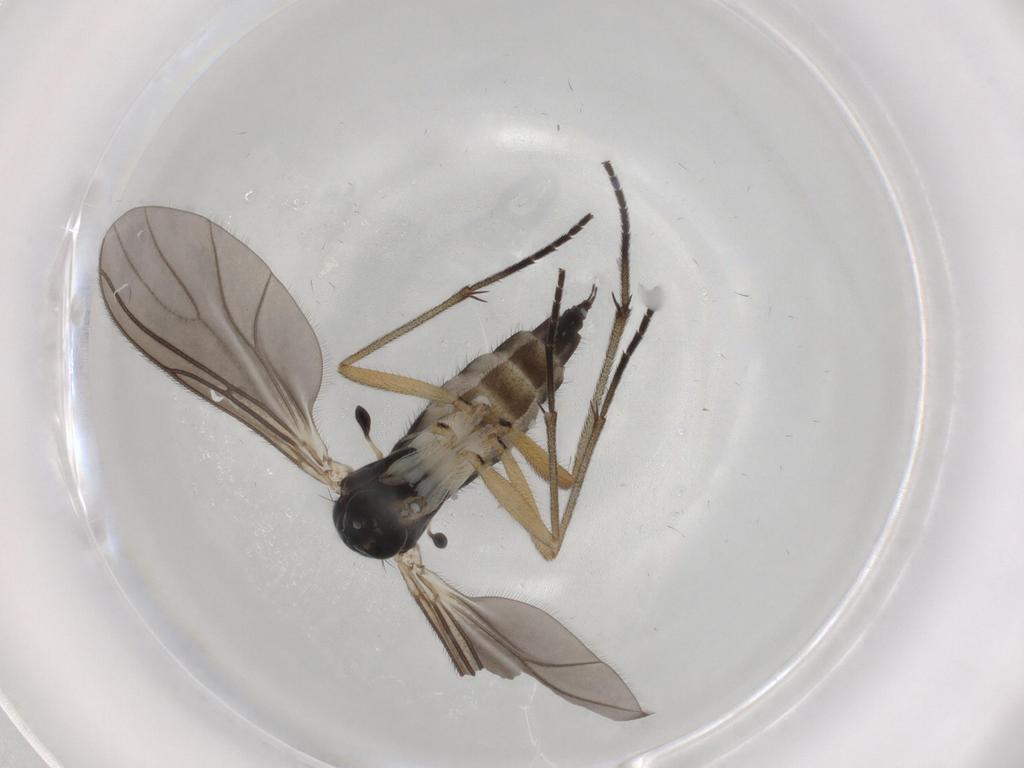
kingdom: Animalia
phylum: Arthropoda
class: Insecta
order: Diptera
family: Sciaridae
